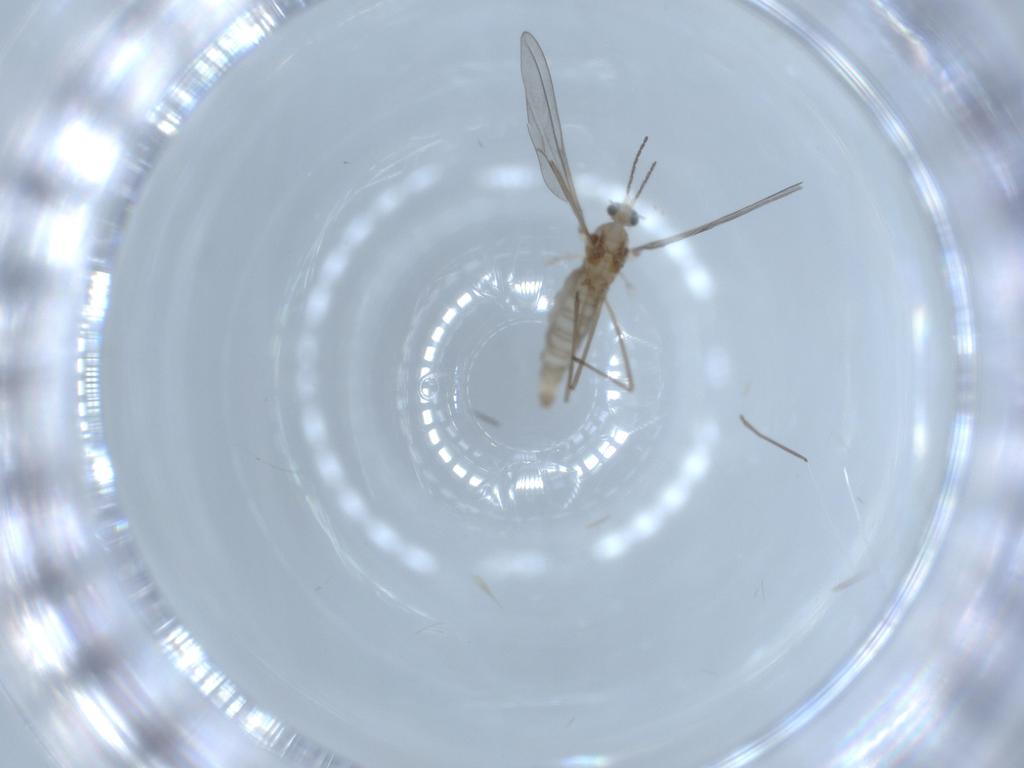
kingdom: Animalia
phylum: Arthropoda
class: Insecta
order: Diptera
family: Cecidomyiidae
